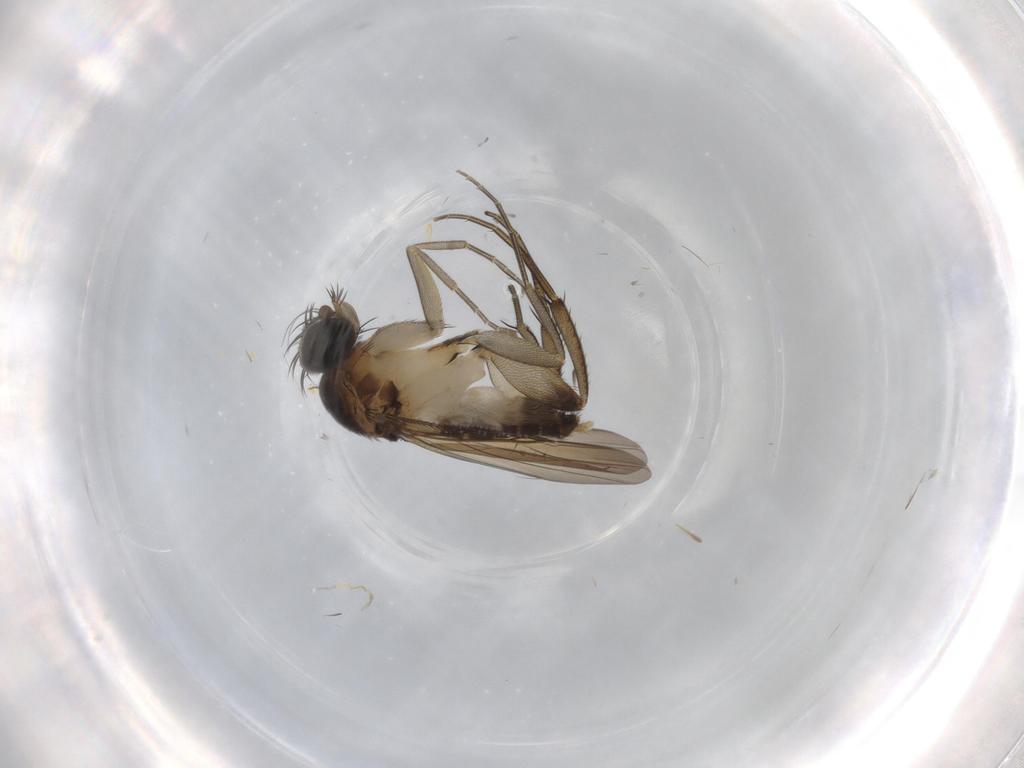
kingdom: Animalia
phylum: Arthropoda
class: Insecta
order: Diptera
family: Phoridae
